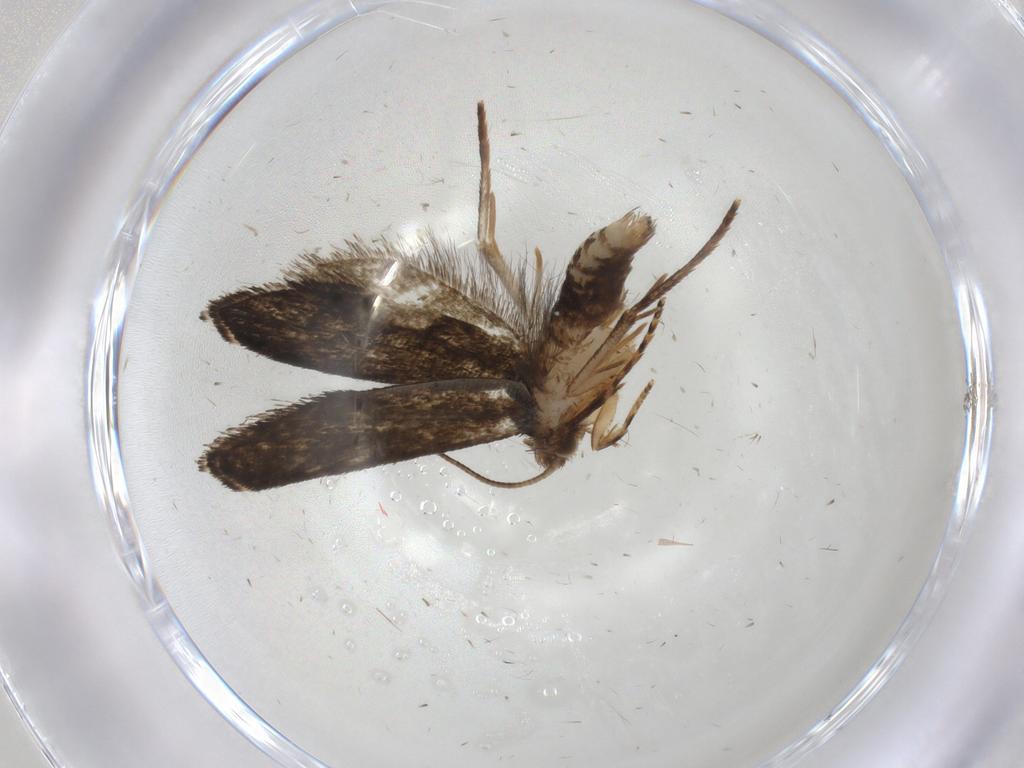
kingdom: Animalia
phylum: Arthropoda
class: Insecta
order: Lepidoptera
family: Crambidae
